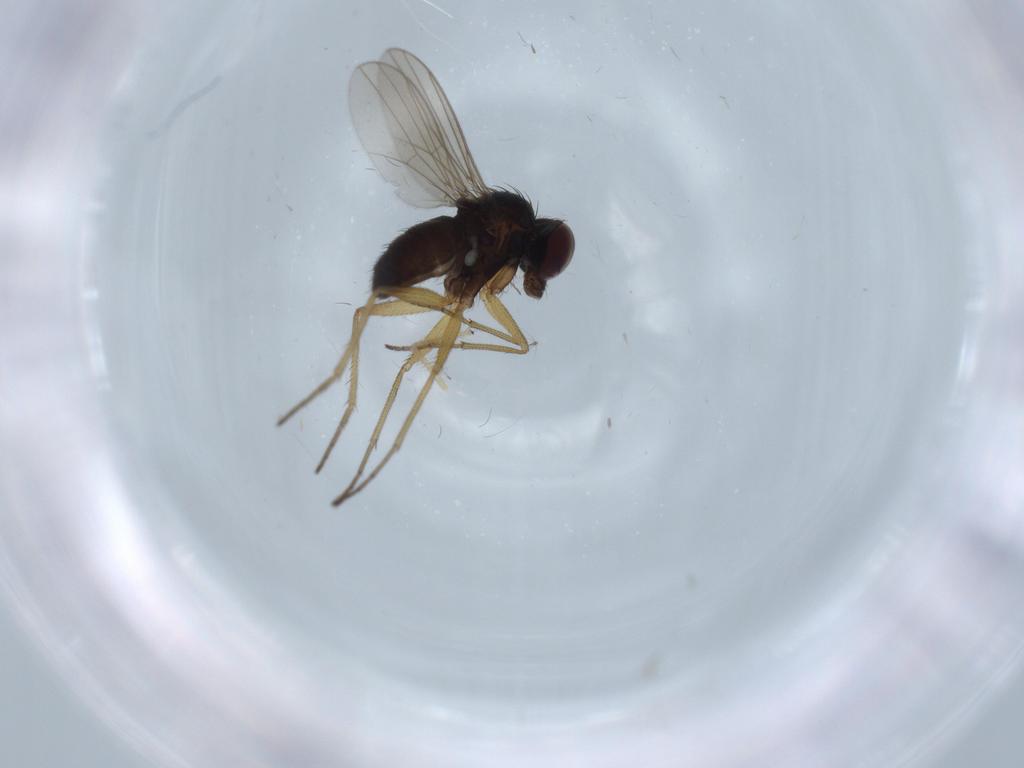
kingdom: Animalia
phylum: Arthropoda
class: Insecta
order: Diptera
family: Dolichopodidae
